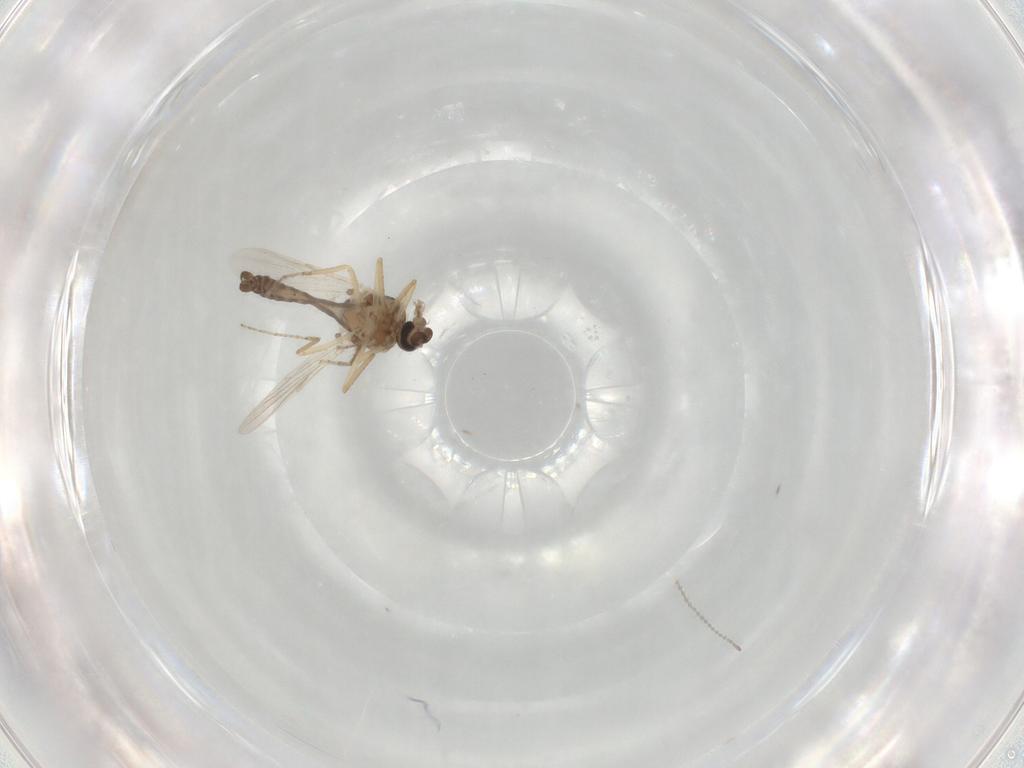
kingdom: Animalia
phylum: Arthropoda
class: Insecta
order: Diptera
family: Ceratopogonidae
